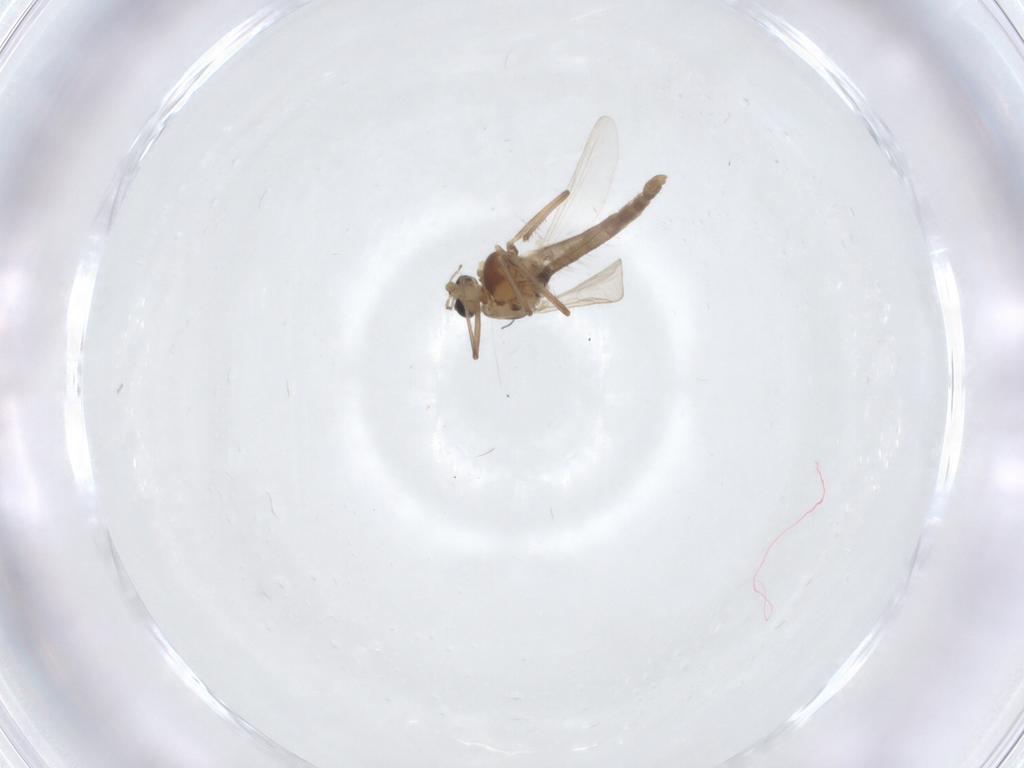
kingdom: Animalia
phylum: Arthropoda
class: Insecta
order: Diptera
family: Chironomidae
